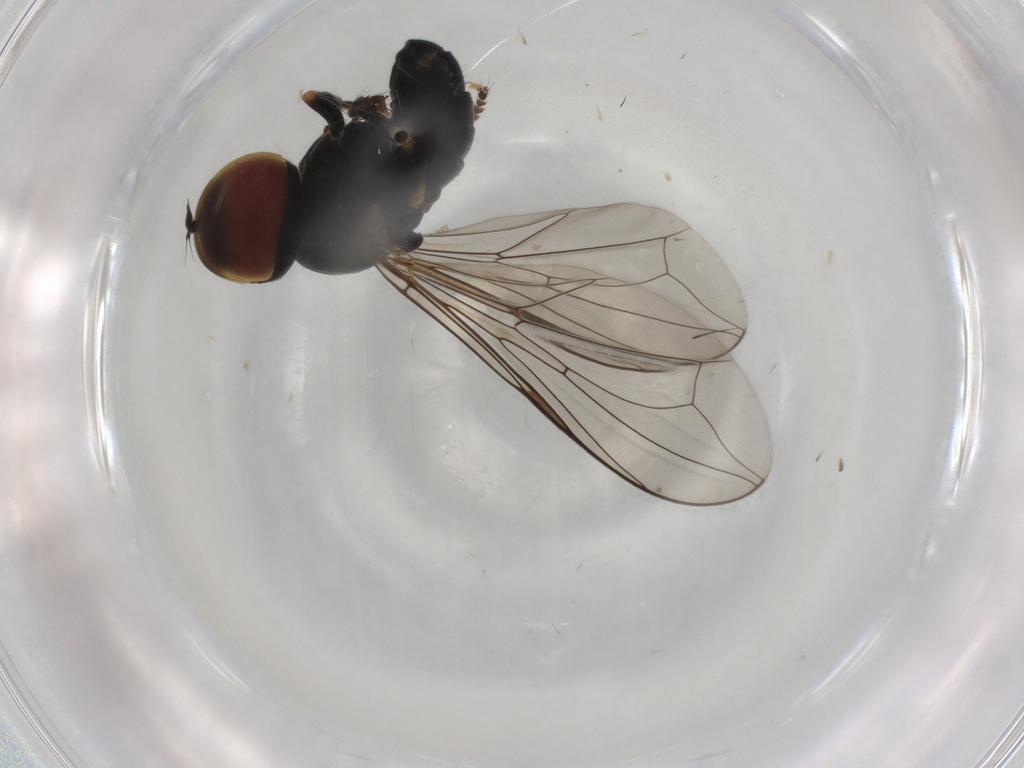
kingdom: Animalia
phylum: Arthropoda
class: Insecta
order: Diptera
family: Pipunculidae
